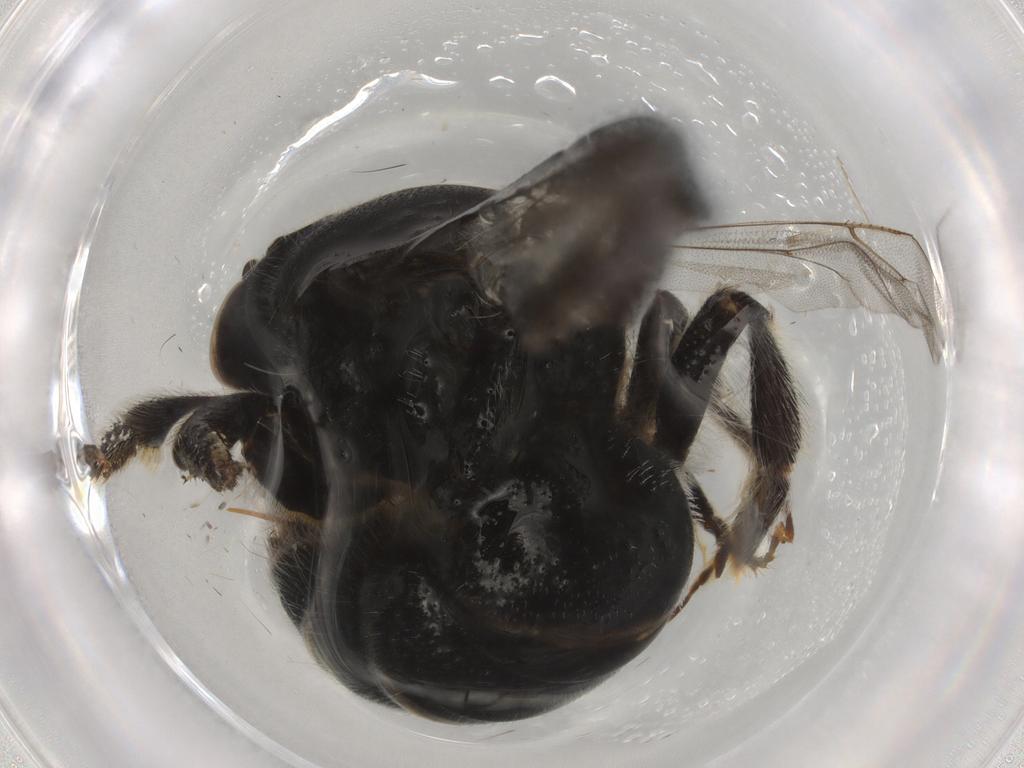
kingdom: Animalia
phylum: Arthropoda
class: Insecta
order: Hymenoptera
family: Halictidae
